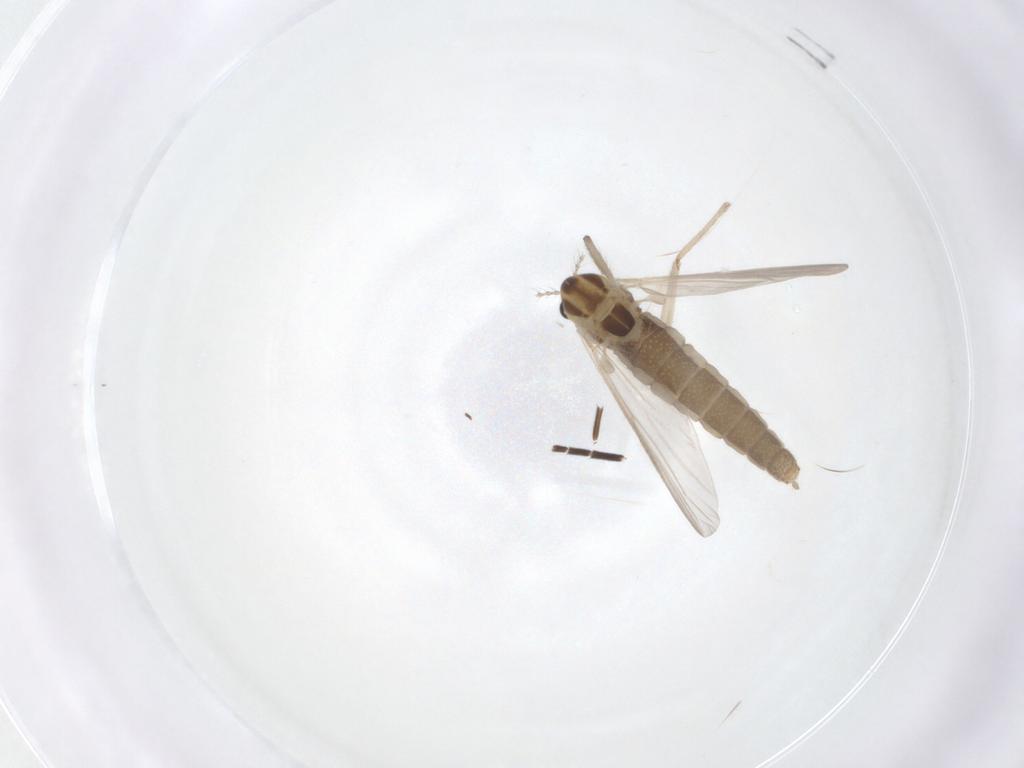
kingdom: Animalia
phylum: Arthropoda
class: Insecta
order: Diptera
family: Chironomidae
